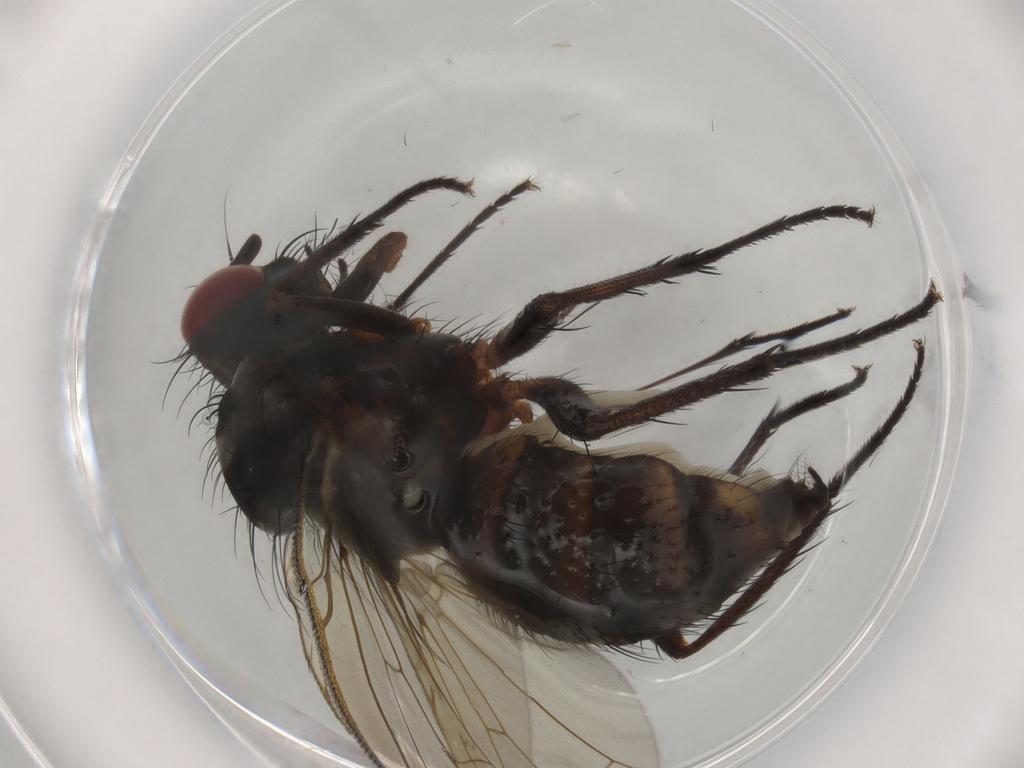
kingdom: Animalia
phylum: Arthropoda
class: Insecta
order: Diptera
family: Anthomyiidae
